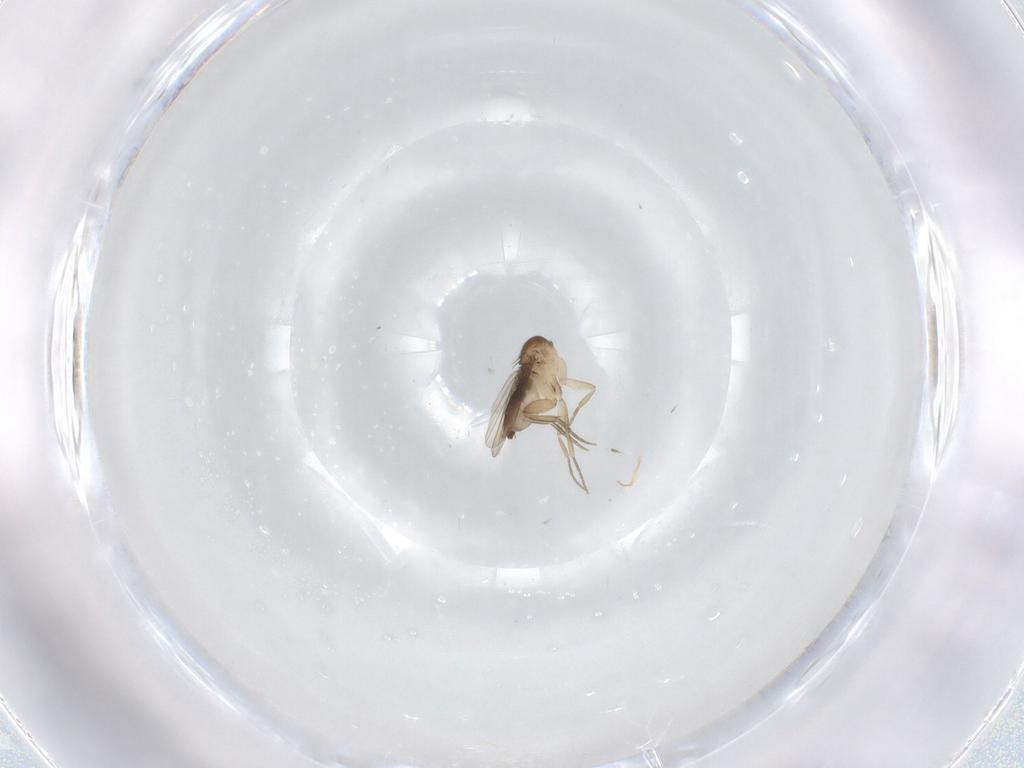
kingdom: Animalia
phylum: Arthropoda
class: Insecta
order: Diptera
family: Phoridae
